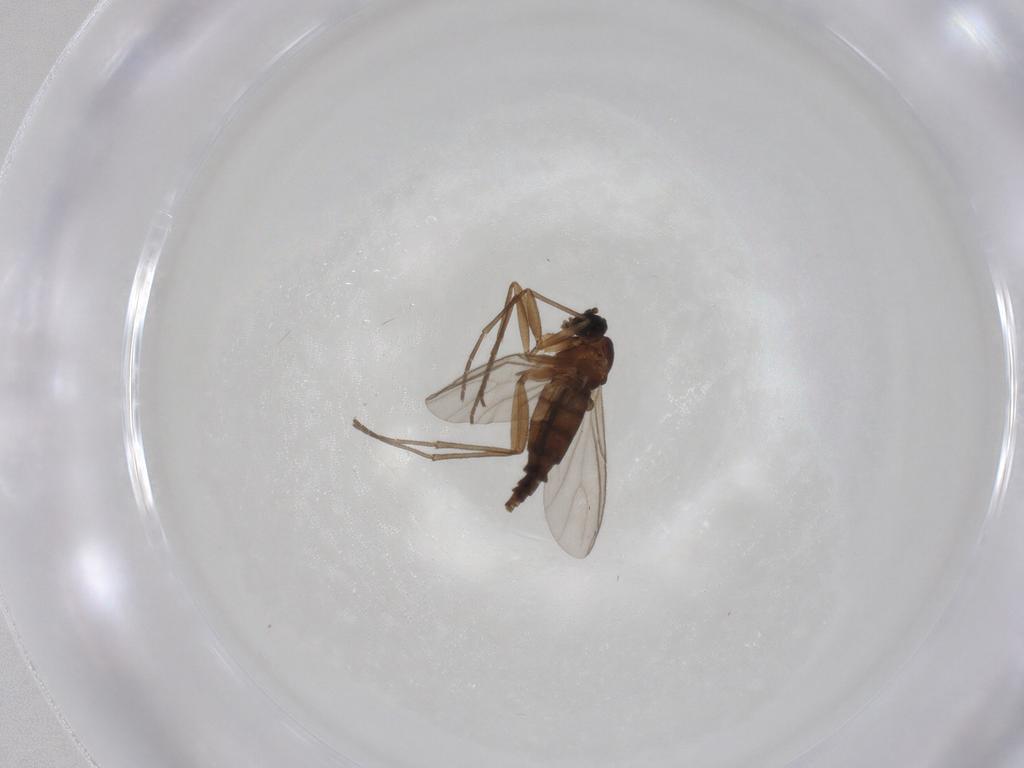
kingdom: Animalia
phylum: Arthropoda
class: Insecta
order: Diptera
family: Sciaridae
